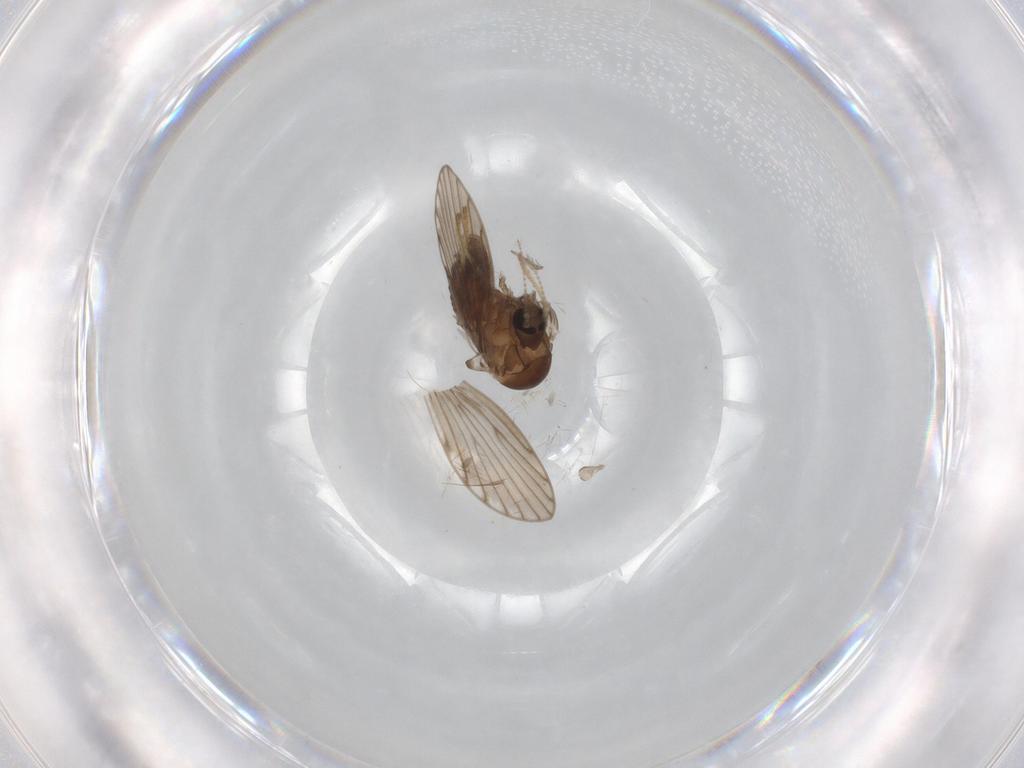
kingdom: Animalia
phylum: Arthropoda
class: Insecta
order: Diptera
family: Psychodidae
